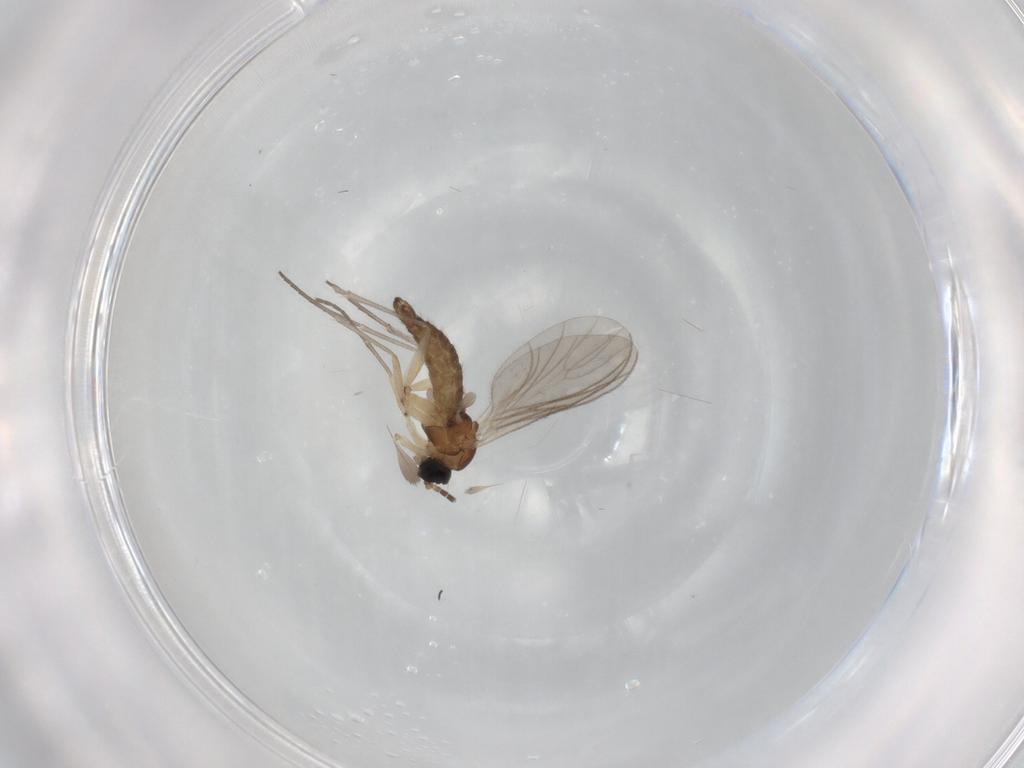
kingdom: Animalia
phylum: Arthropoda
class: Insecta
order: Diptera
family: Sciaridae
